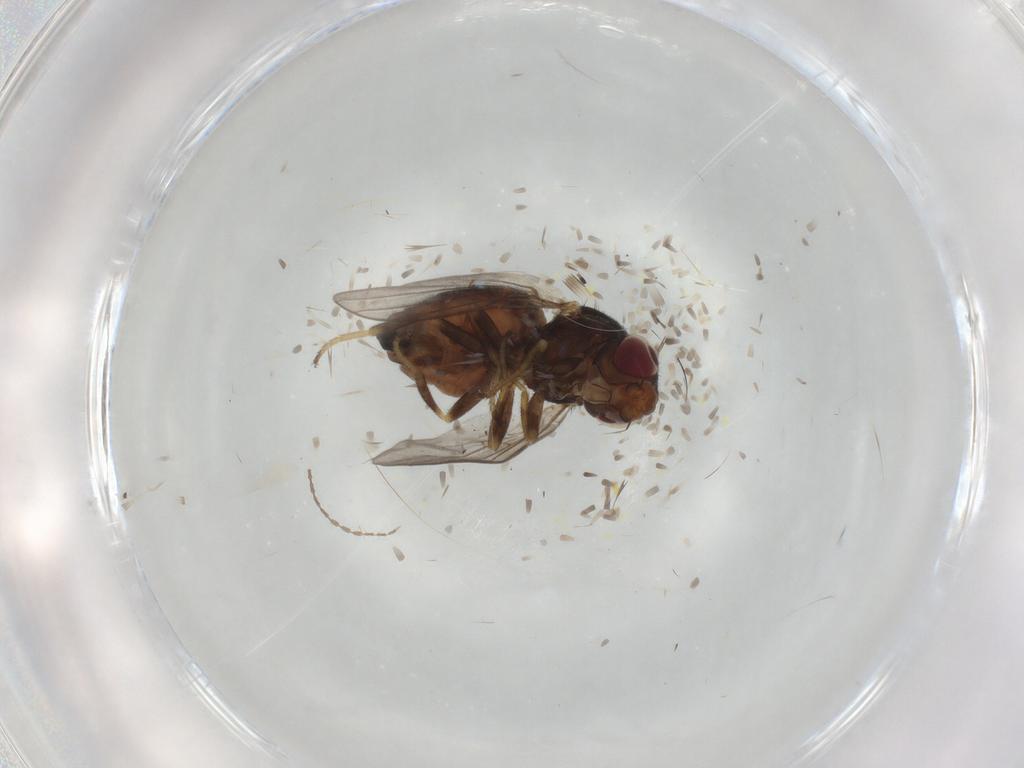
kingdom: Animalia
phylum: Arthropoda
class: Insecta
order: Diptera
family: Chloropidae
